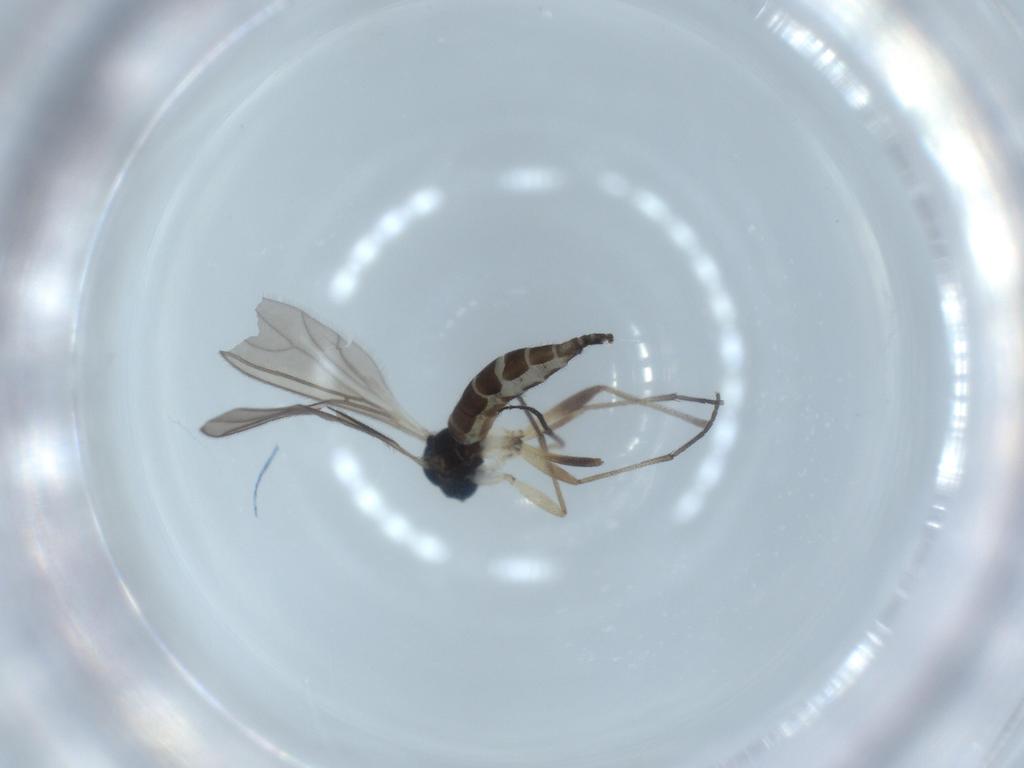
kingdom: Animalia
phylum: Arthropoda
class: Insecta
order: Diptera
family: Sciaridae
